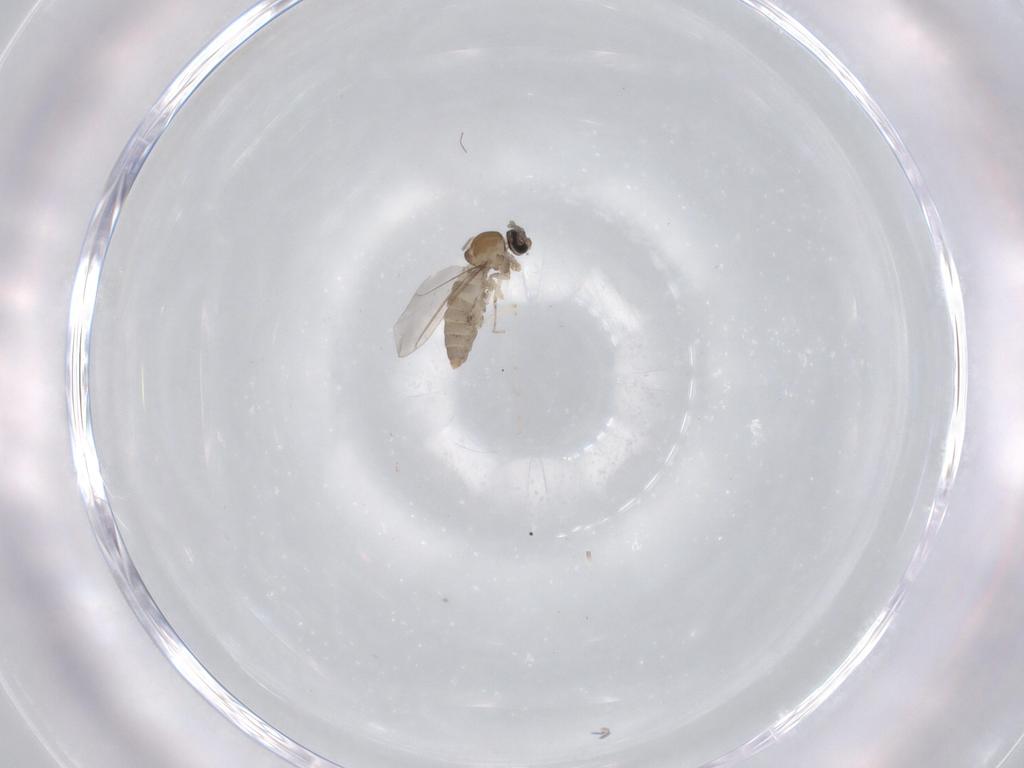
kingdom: Animalia
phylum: Arthropoda
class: Insecta
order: Diptera
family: Cecidomyiidae
